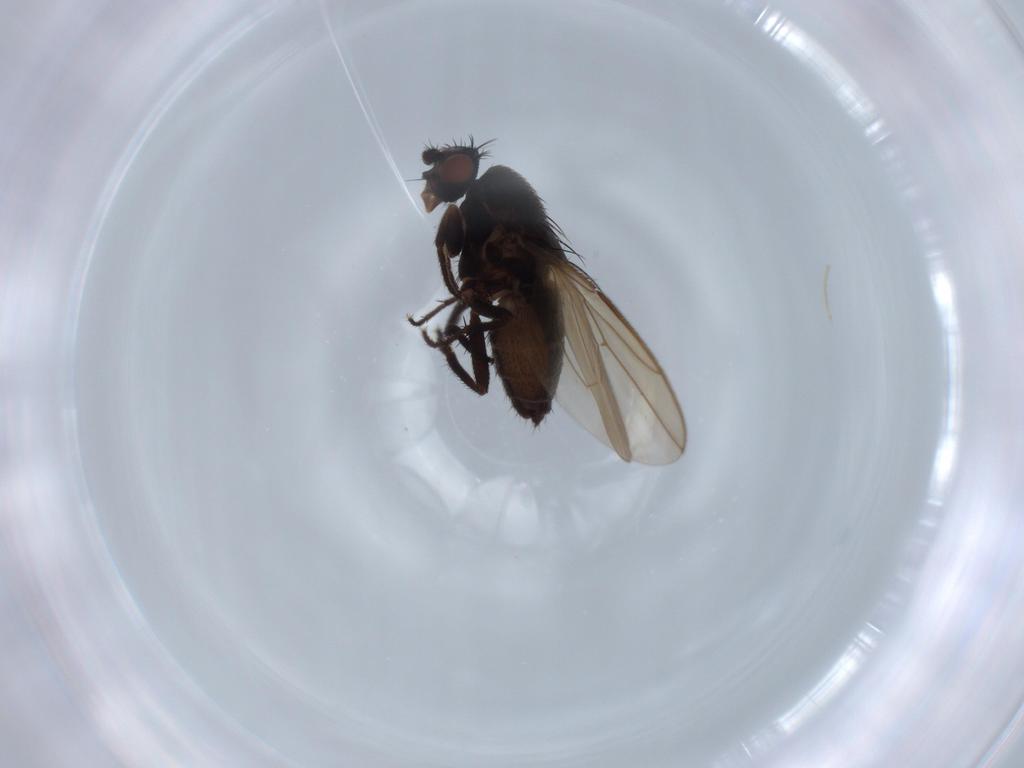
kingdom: Animalia
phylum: Arthropoda
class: Insecta
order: Diptera
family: Sphaeroceridae
